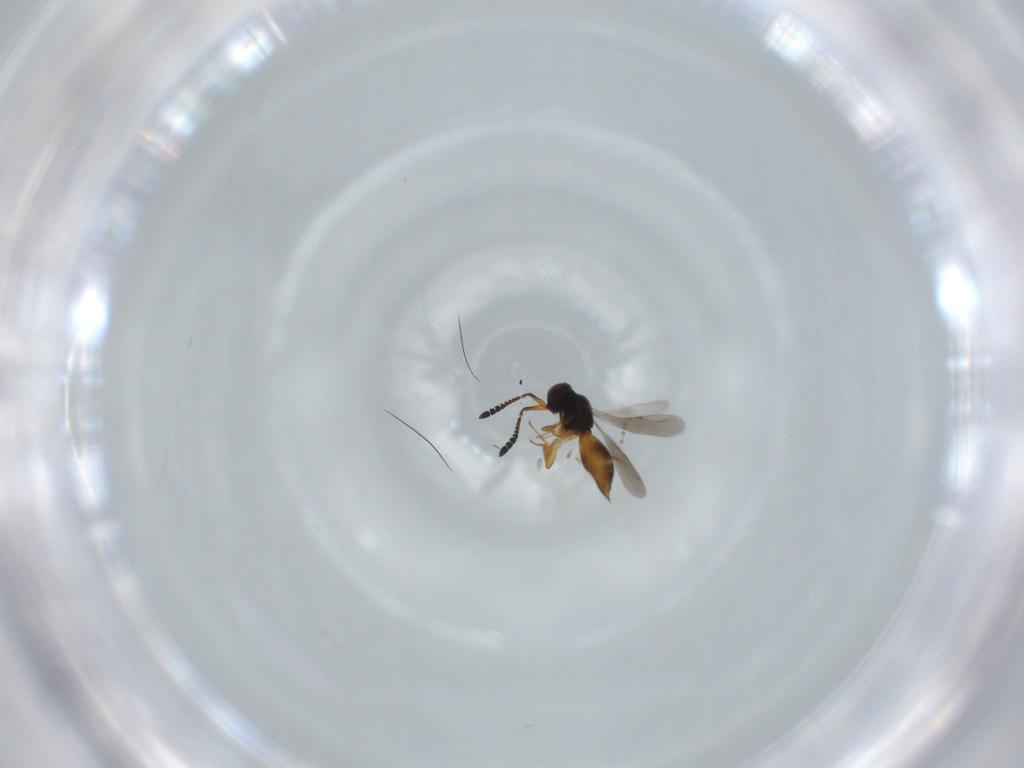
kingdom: Animalia
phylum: Arthropoda
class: Insecta
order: Hymenoptera
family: Ceraphronidae
